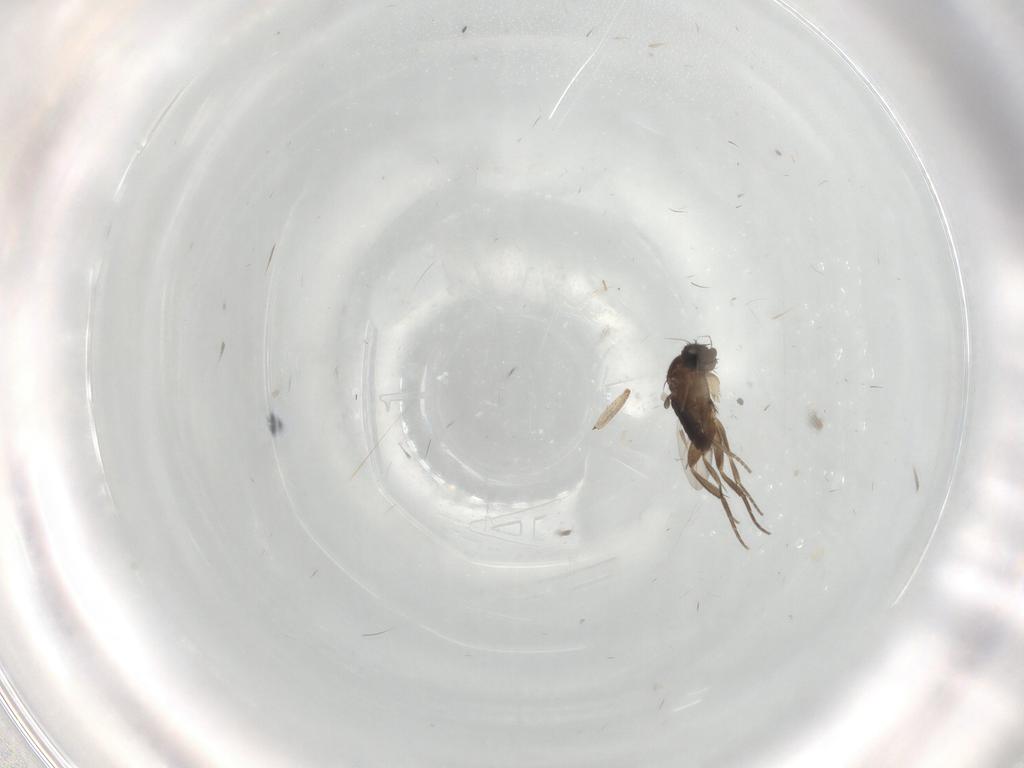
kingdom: Animalia
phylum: Arthropoda
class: Insecta
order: Diptera
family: Phoridae
